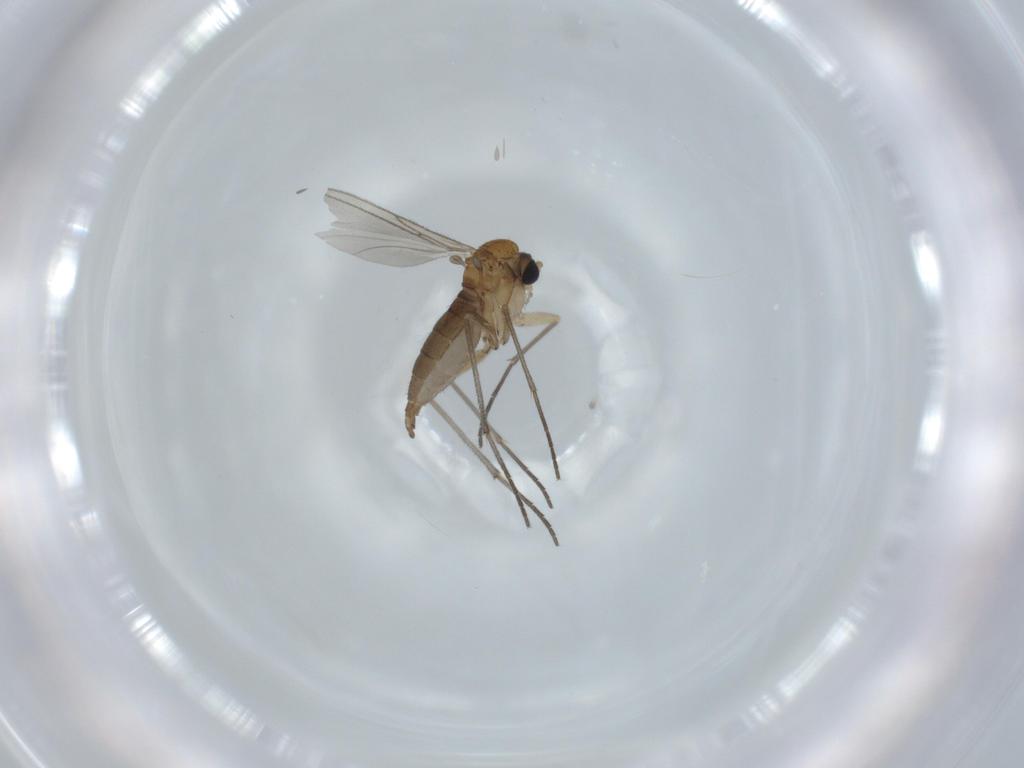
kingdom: Animalia
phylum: Arthropoda
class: Insecta
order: Diptera
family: Sciaridae
